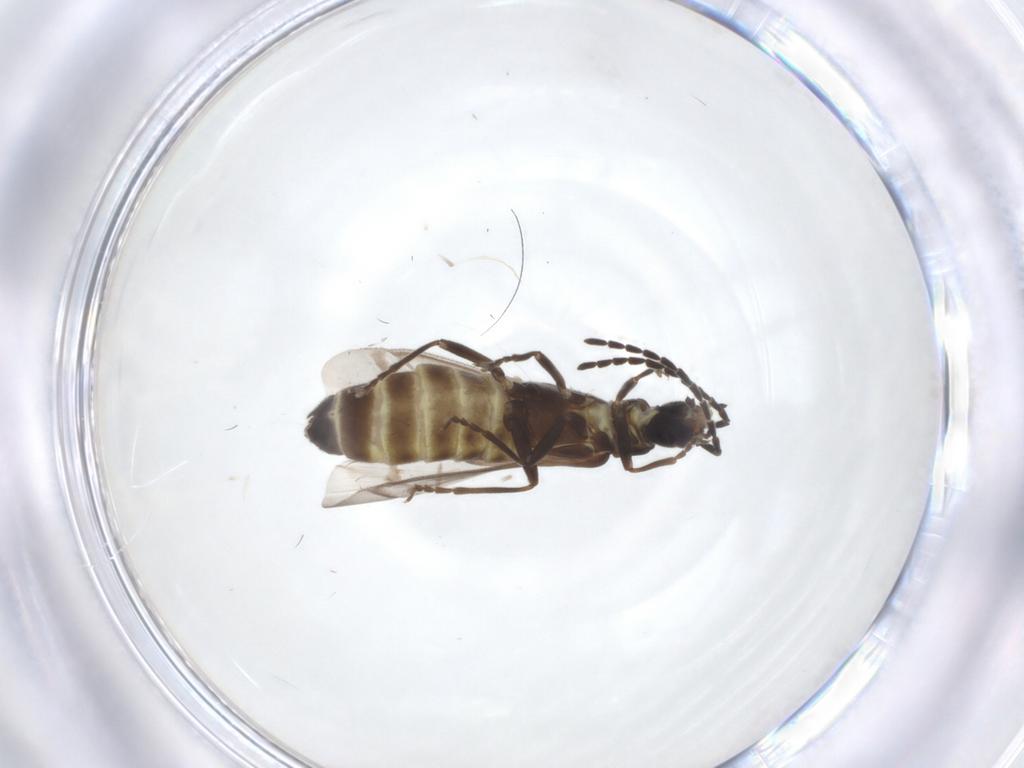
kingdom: Animalia
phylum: Arthropoda
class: Insecta
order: Coleoptera
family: Cantharidae
